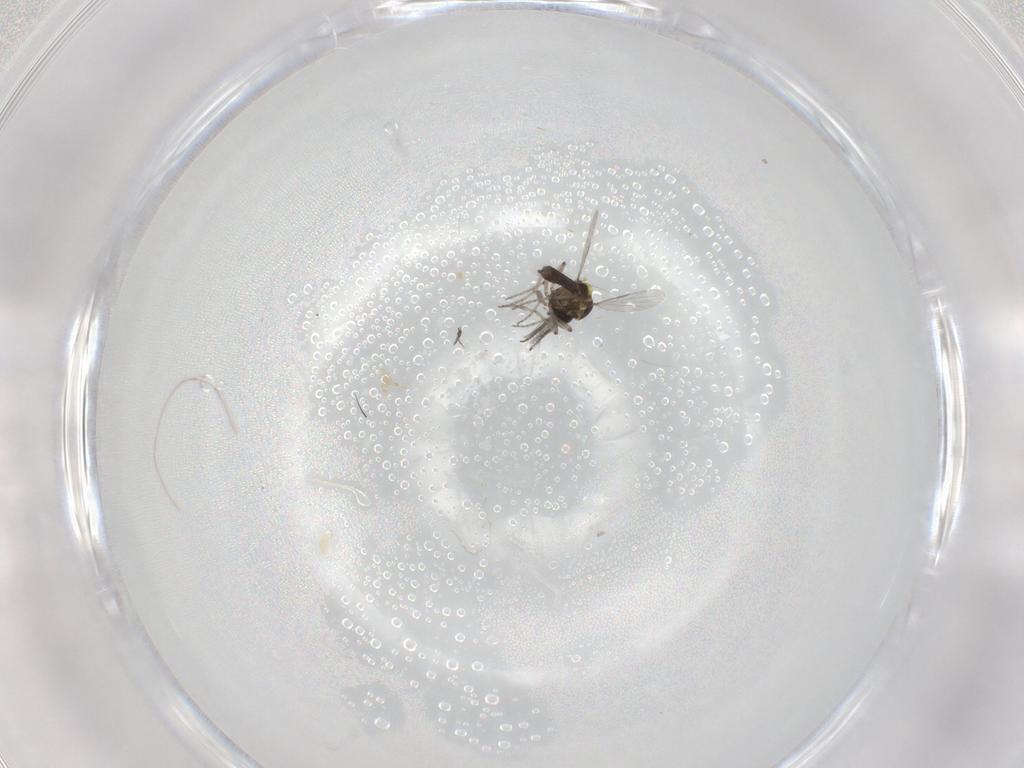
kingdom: Animalia
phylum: Arthropoda
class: Insecta
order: Diptera
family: Ceratopogonidae
